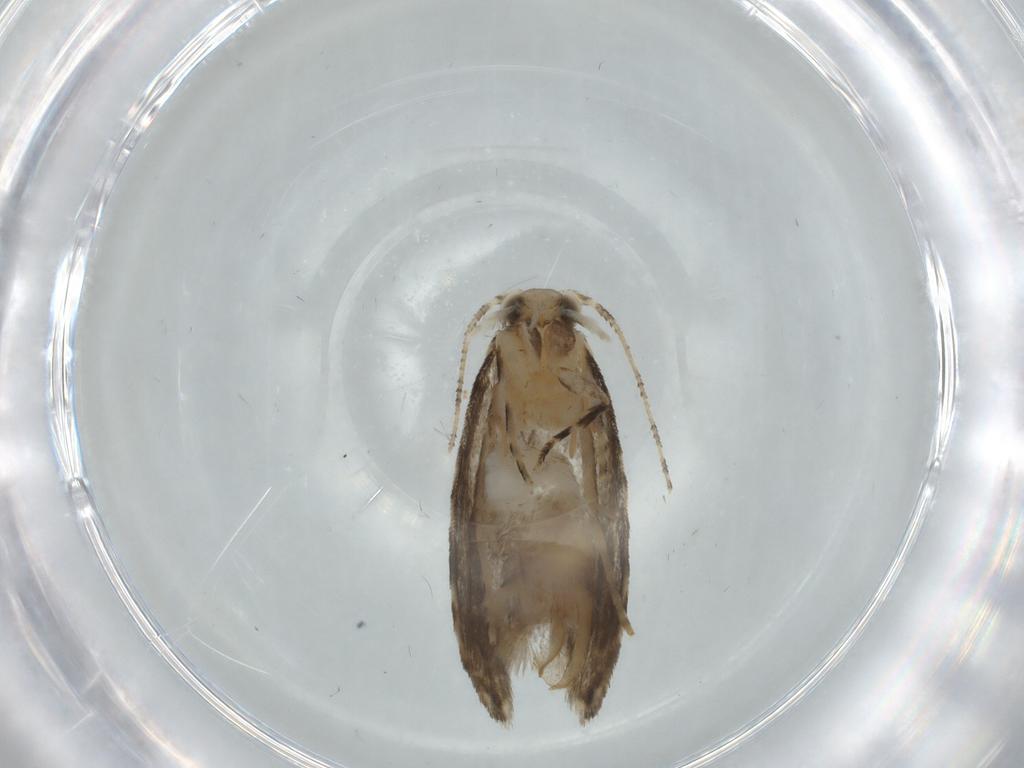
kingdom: Animalia
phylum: Arthropoda
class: Insecta
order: Lepidoptera
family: Tineidae
